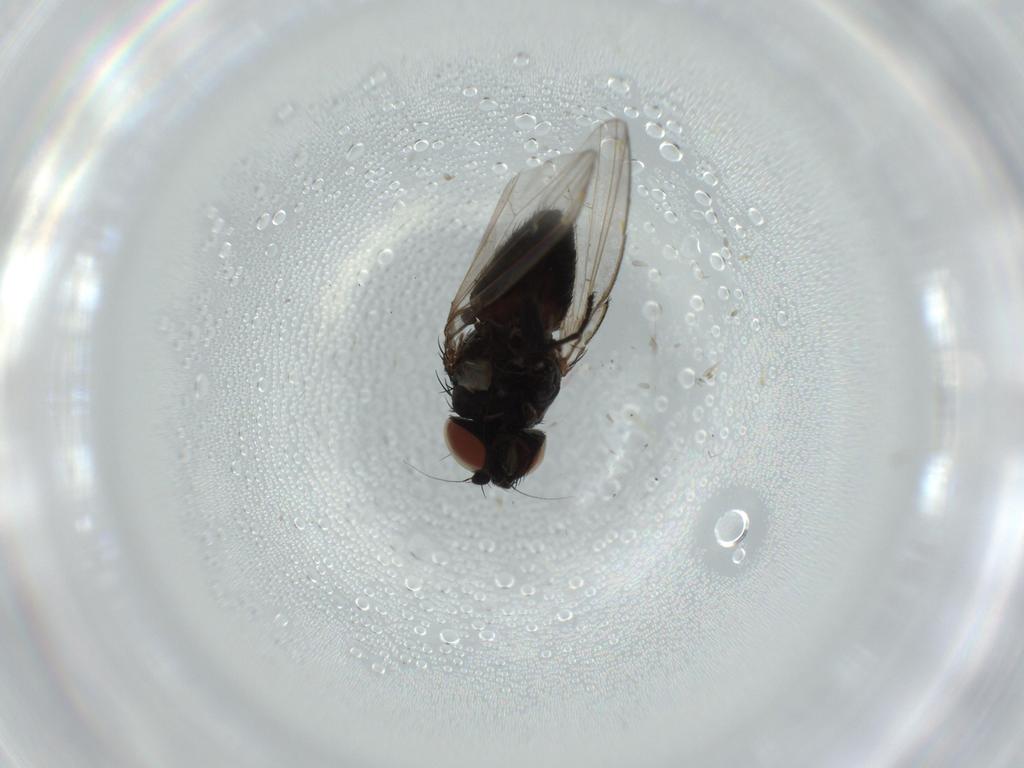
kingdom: Animalia
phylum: Arthropoda
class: Insecta
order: Diptera
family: Milichiidae
